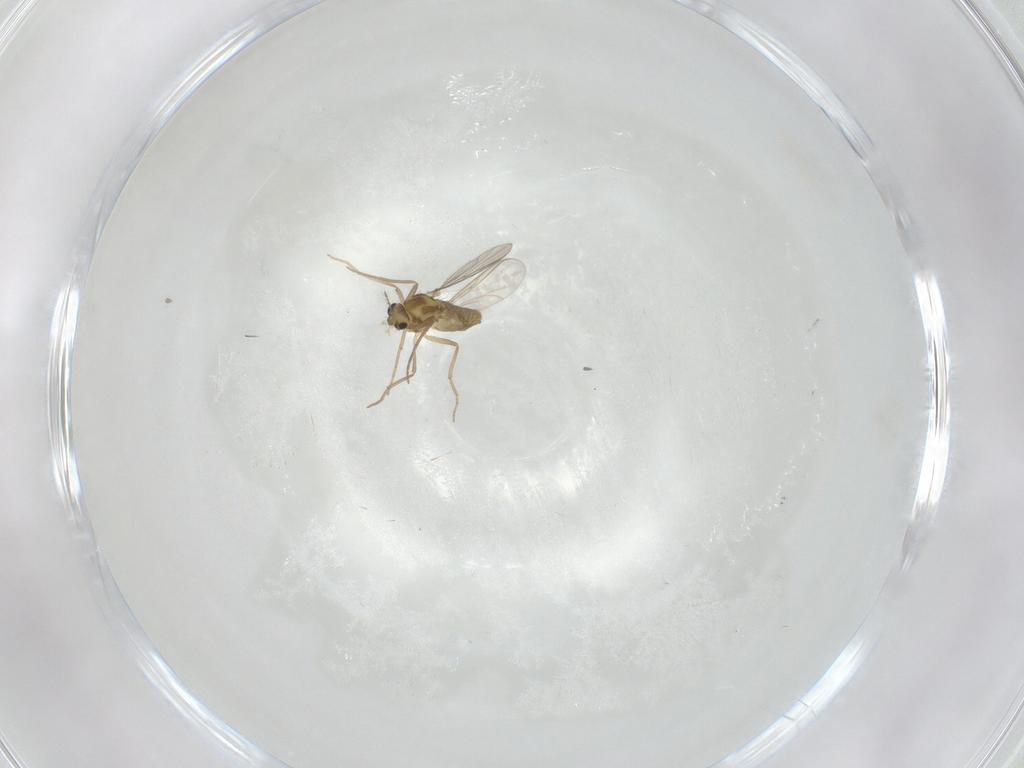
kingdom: Animalia
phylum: Arthropoda
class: Insecta
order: Diptera
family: Chironomidae
